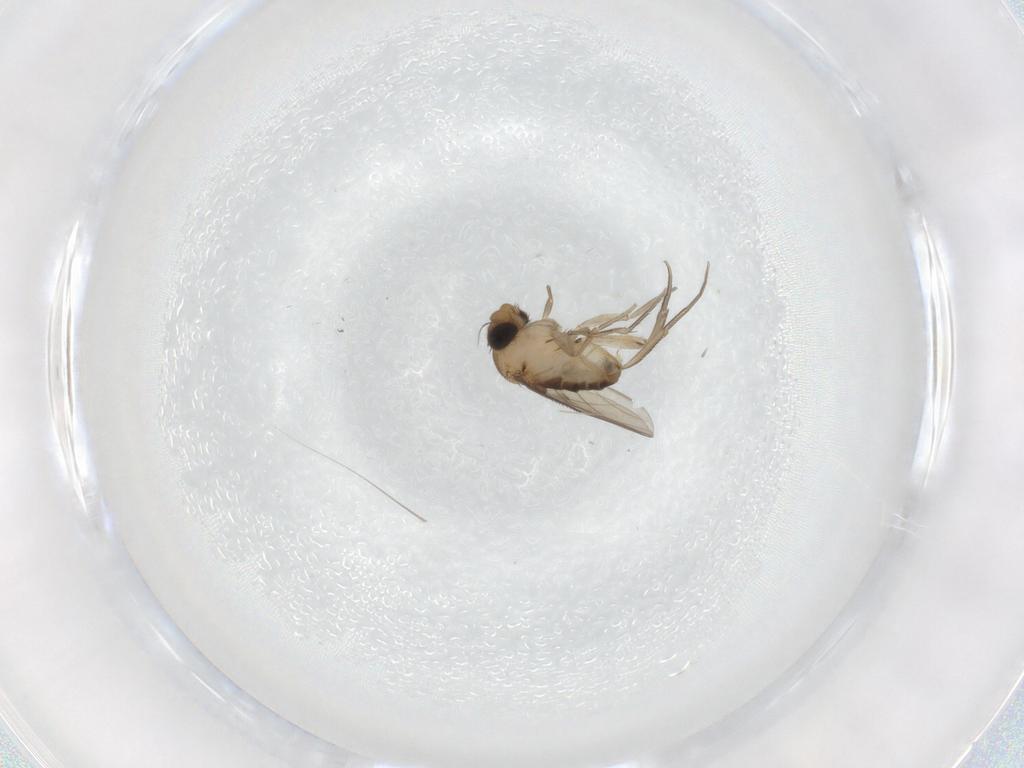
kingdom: Animalia
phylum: Arthropoda
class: Insecta
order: Diptera
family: Phoridae
